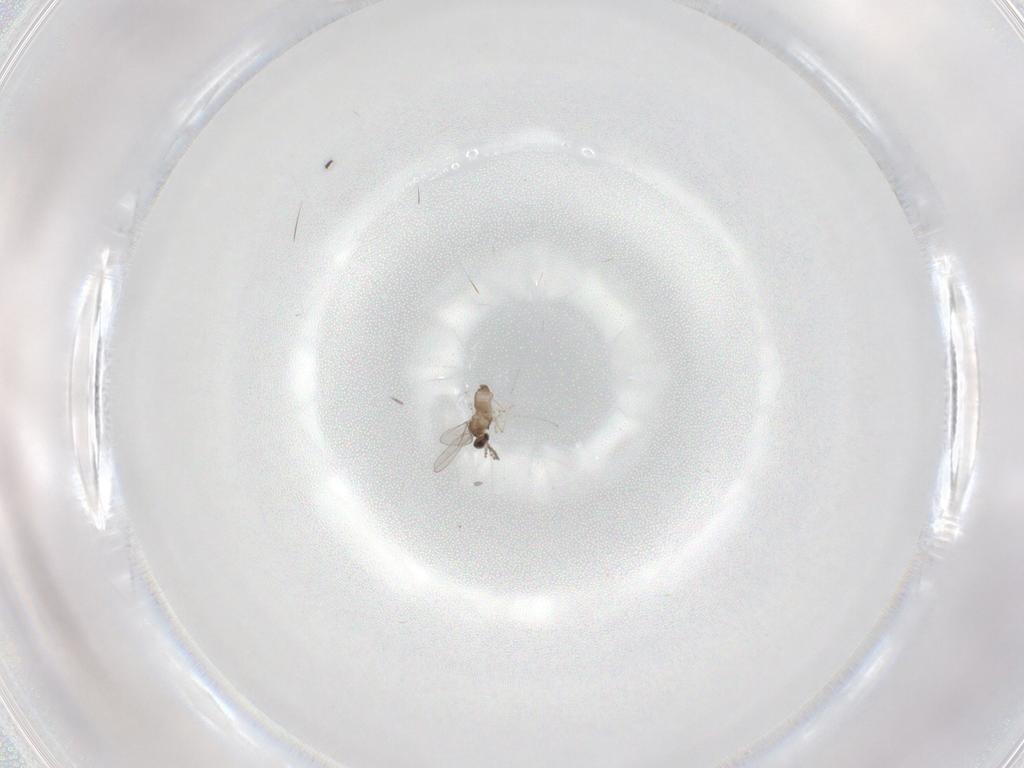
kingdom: Animalia
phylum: Arthropoda
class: Insecta
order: Diptera
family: Cecidomyiidae
